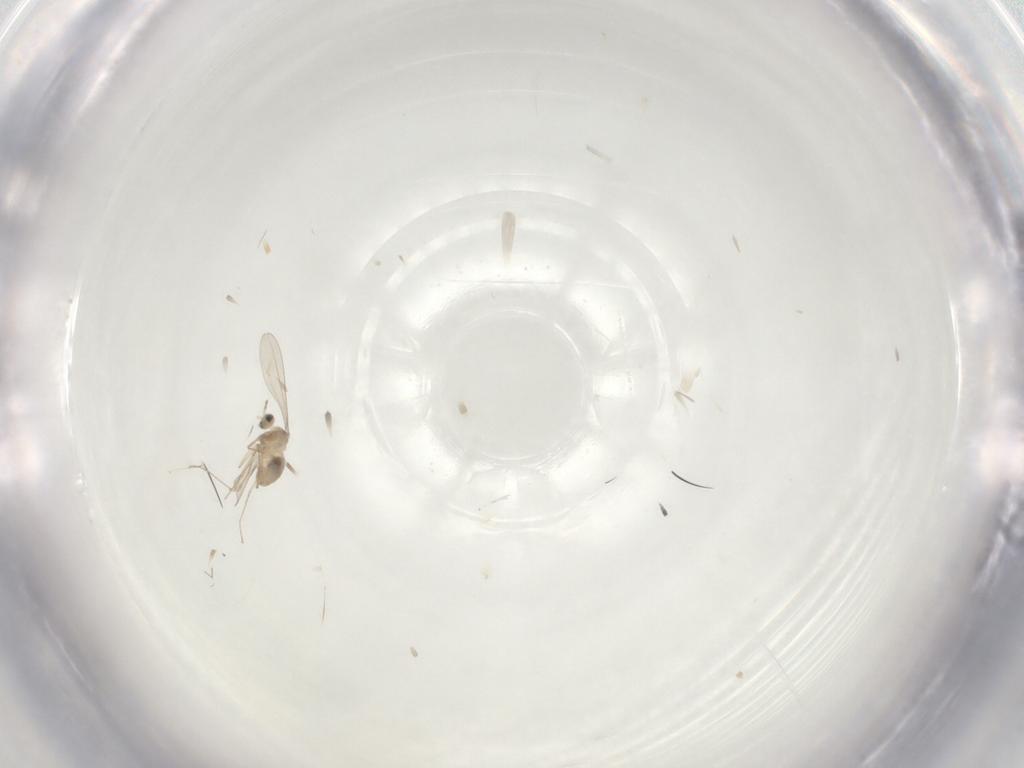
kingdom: Animalia
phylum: Arthropoda
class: Insecta
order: Diptera
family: Cecidomyiidae
